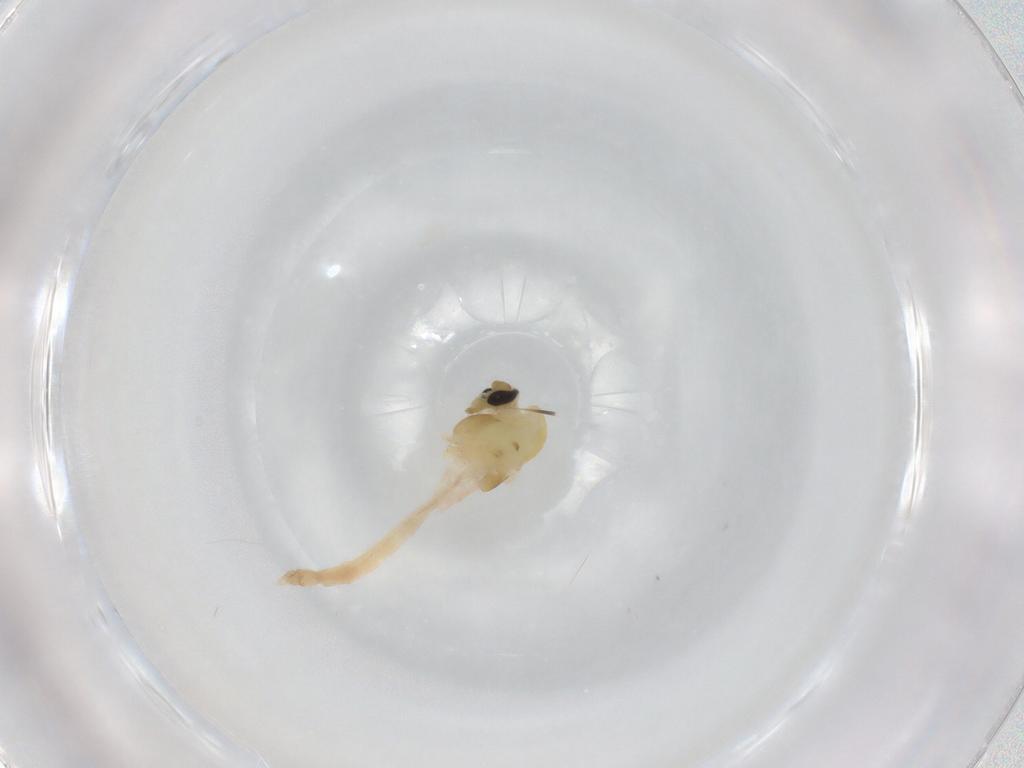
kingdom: Animalia
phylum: Arthropoda
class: Insecta
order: Diptera
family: Chironomidae
